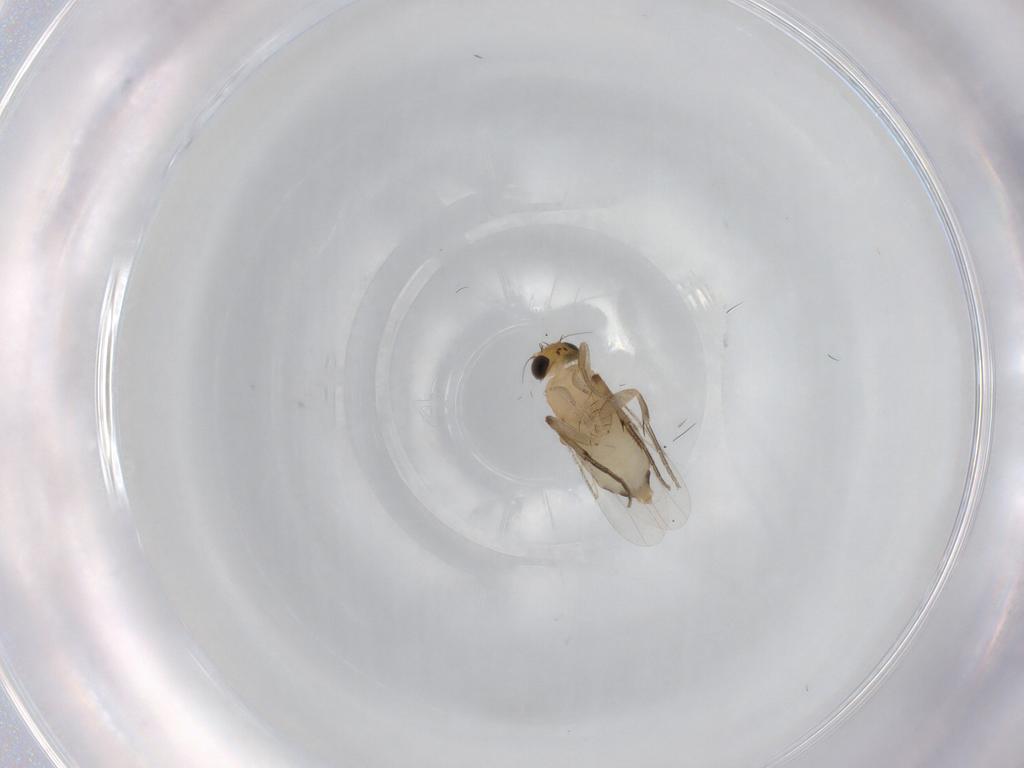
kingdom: Animalia
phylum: Arthropoda
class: Insecta
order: Diptera
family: Phoridae
